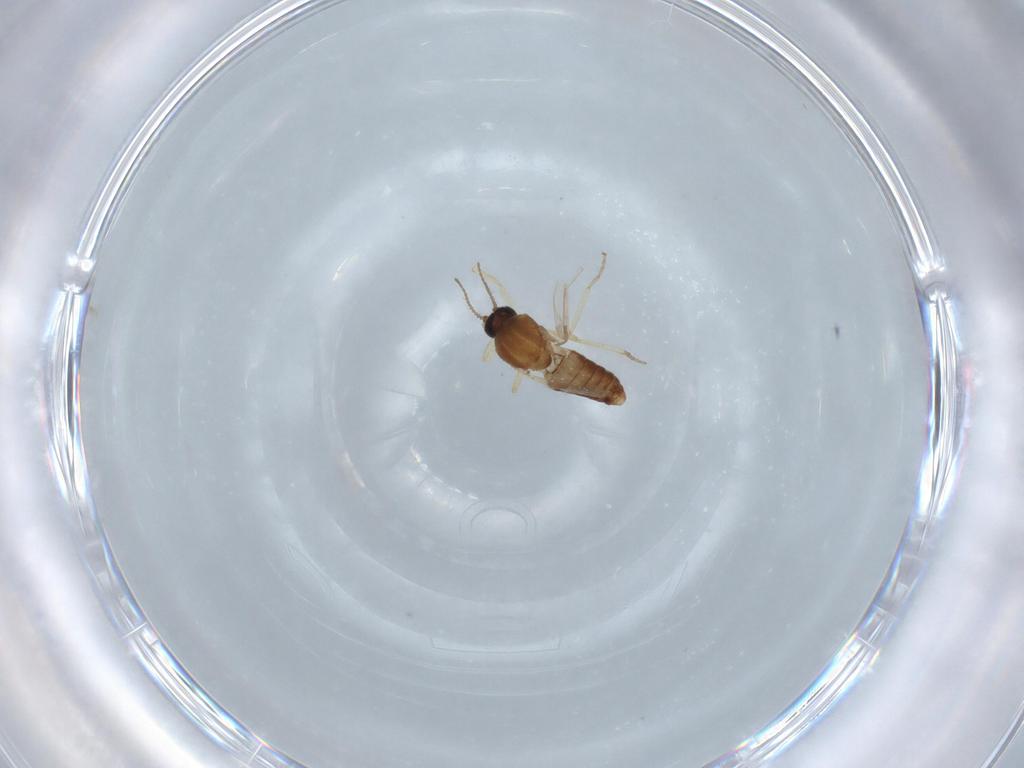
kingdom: Animalia
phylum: Arthropoda
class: Insecta
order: Diptera
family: Ceratopogonidae
